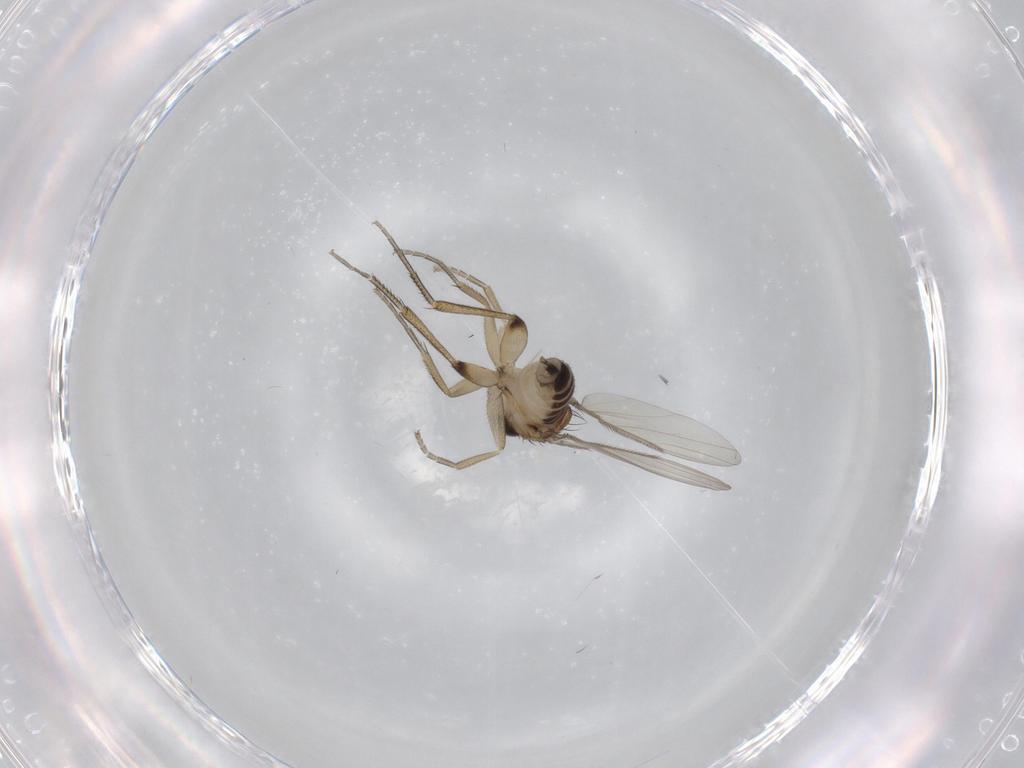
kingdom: Animalia
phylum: Arthropoda
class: Insecta
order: Diptera
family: Phoridae
